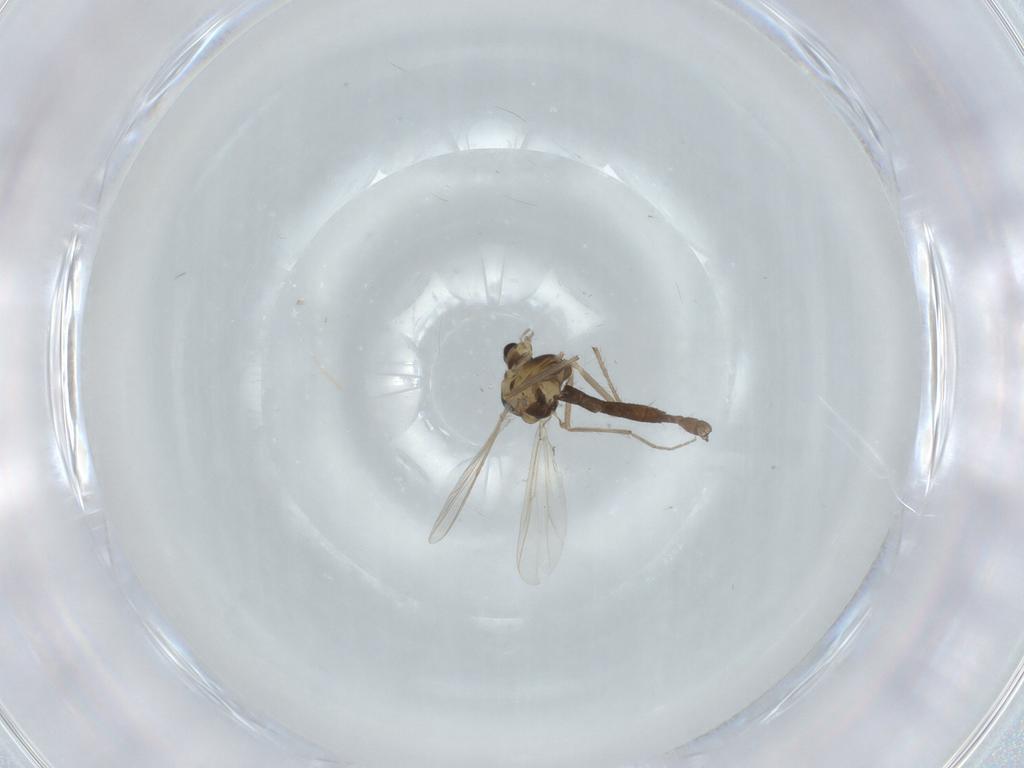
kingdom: Animalia
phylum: Arthropoda
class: Insecta
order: Diptera
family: Chironomidae
